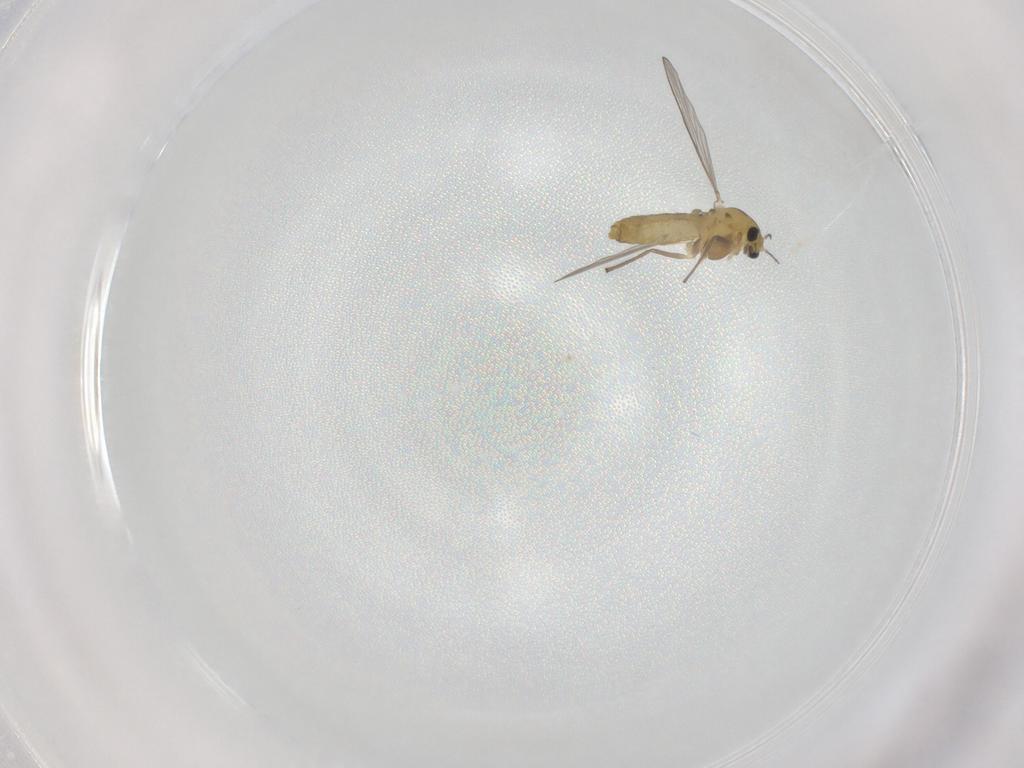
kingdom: Animalia
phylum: Arthropoda
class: Insecta
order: Diptera
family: Chironomidae
